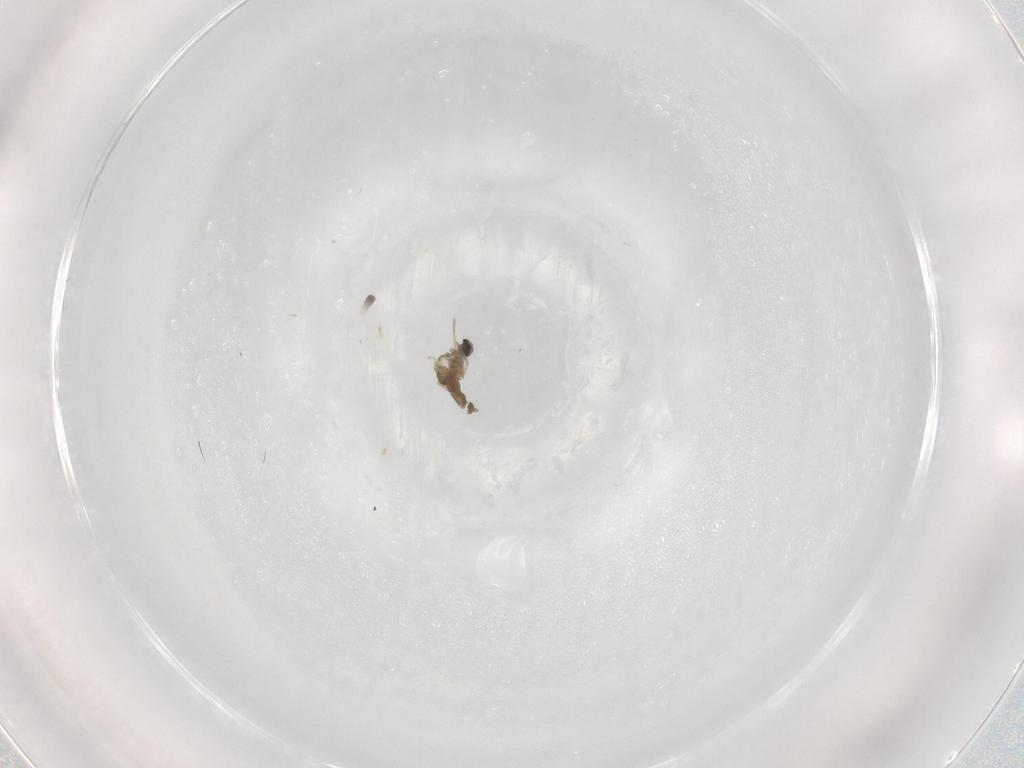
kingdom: Animalia
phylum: Arthropoda
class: Insecta
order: Diptera
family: Cecidomyiidae
